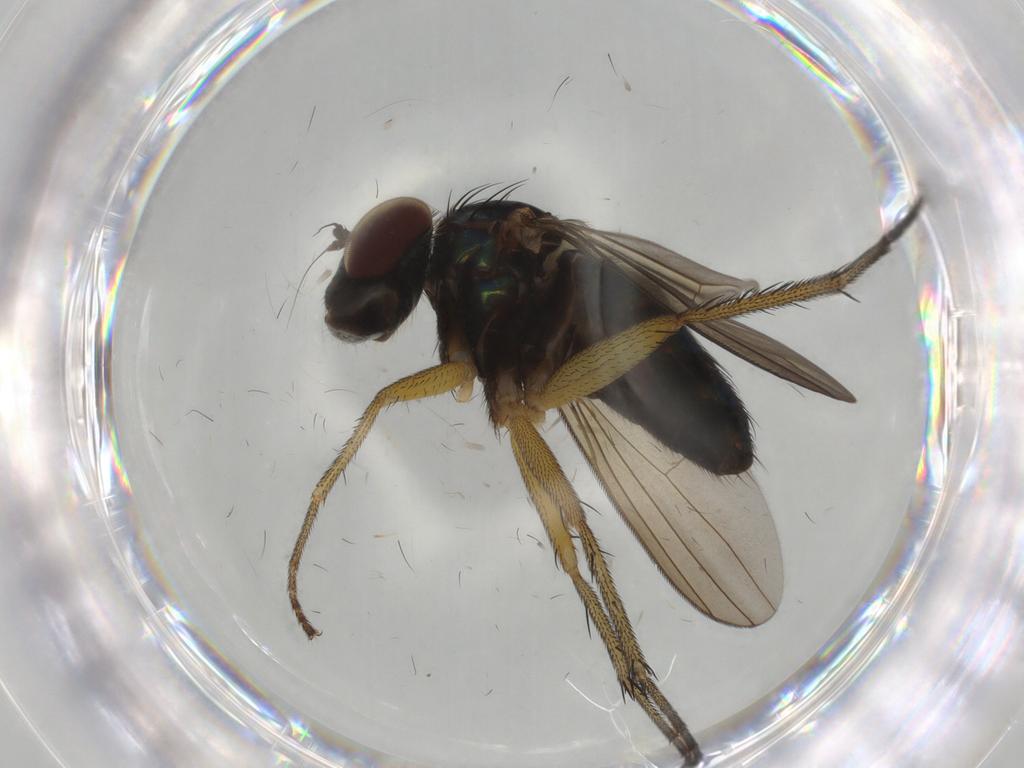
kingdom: Animalia
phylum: Arthropoda
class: Insecta
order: Diptera
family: Dolichopodidae
